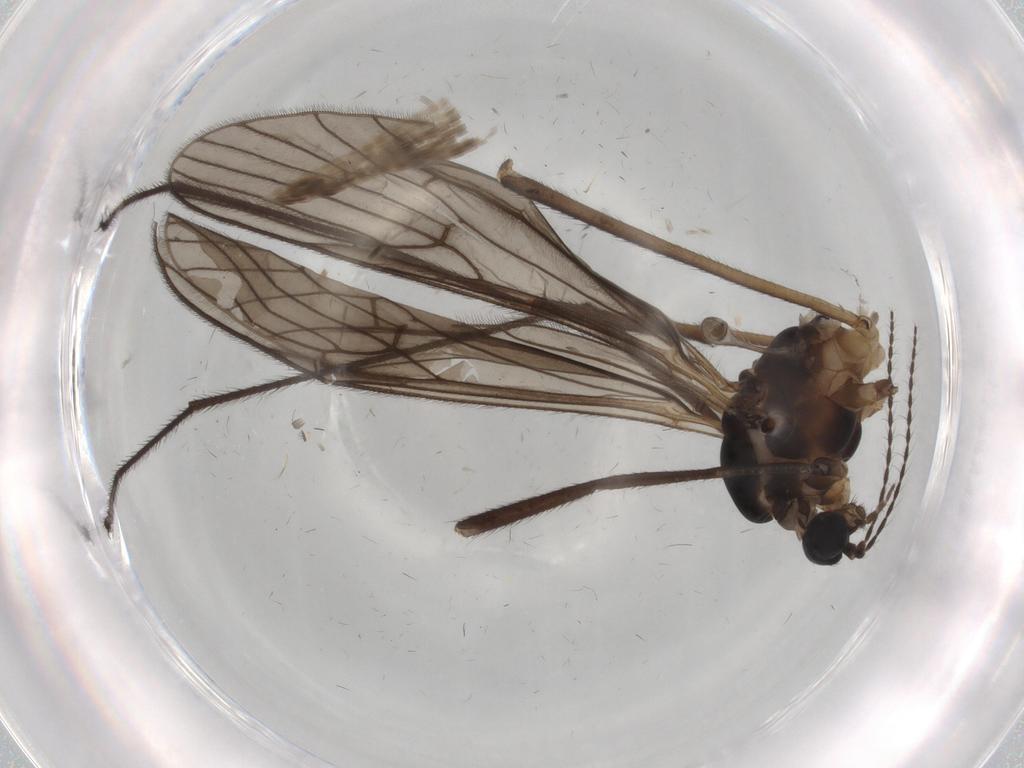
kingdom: Animalia
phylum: Arthropoda
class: Insecta
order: Diptera
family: Limoniidae
